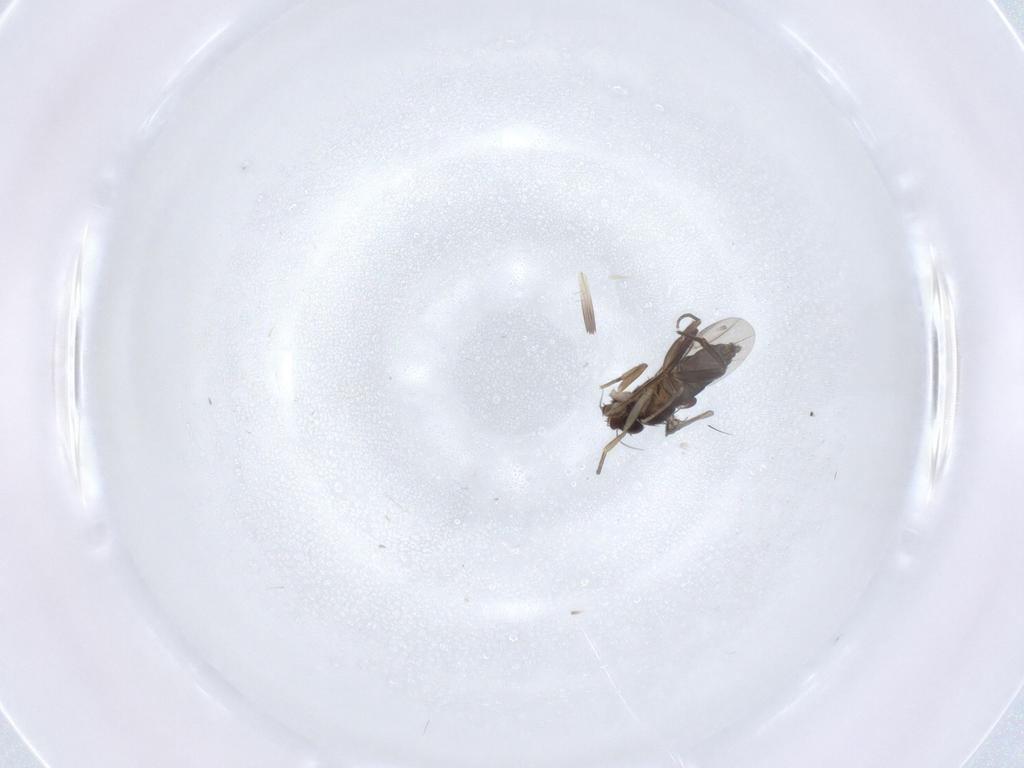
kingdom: Animalia
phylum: Arthropoda
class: Insecta
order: Diptera
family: Phoridae
